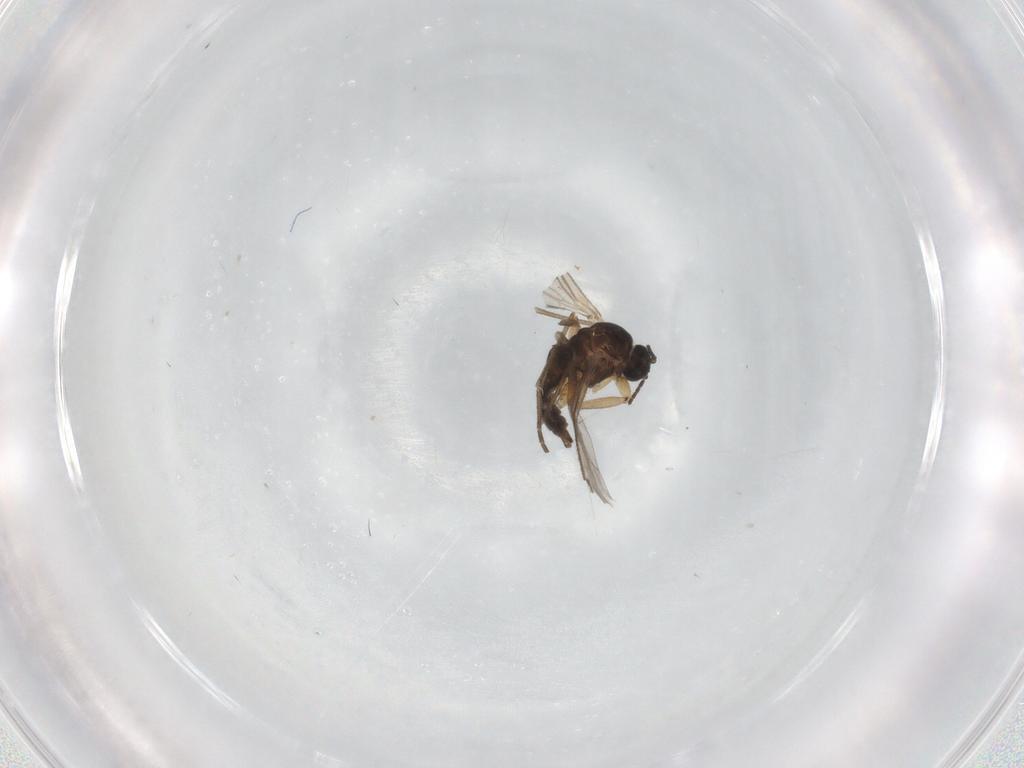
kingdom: Animalia
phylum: Arthropoda
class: Insecta
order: Diptera
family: Sciaridae
